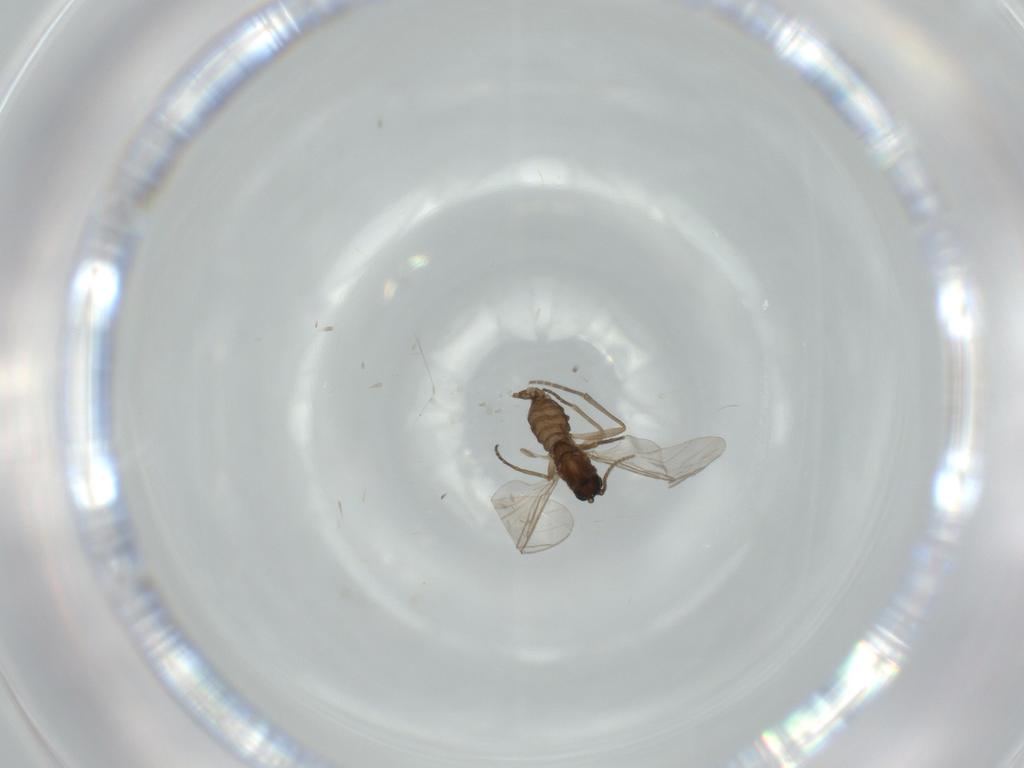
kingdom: Animalia
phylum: Arthropoda
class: Insecta
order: Diptera
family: Sciaridae
